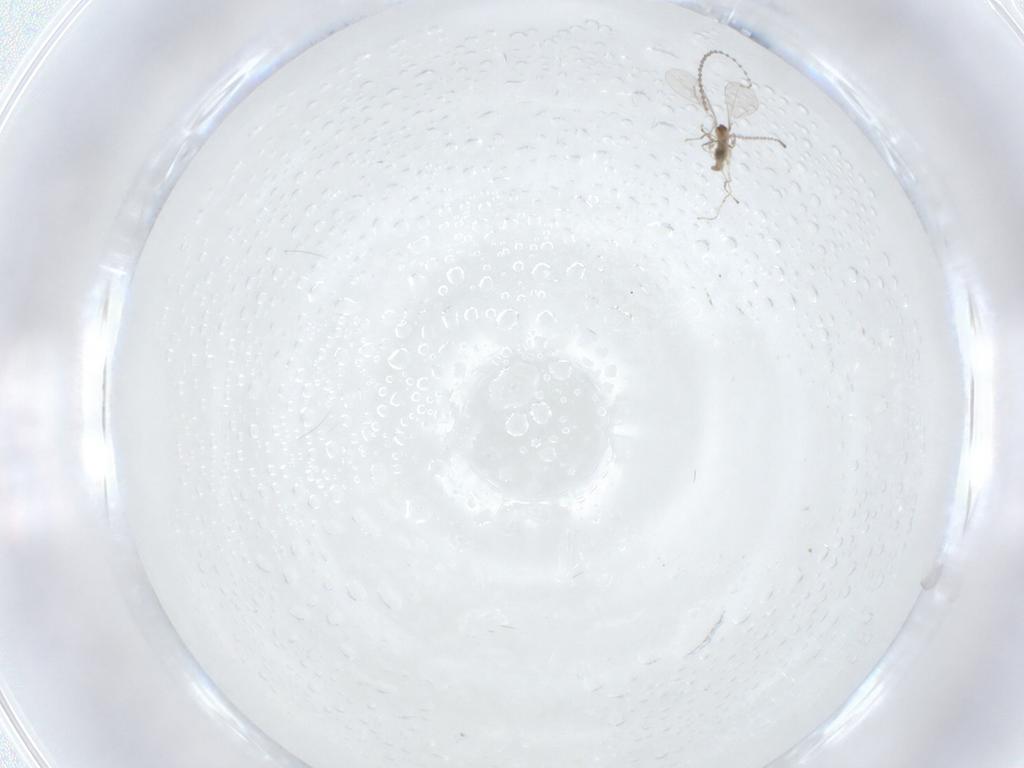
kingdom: Animalia
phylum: Arthropoda
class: Insecta
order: Diptera
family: Cecidomyiidae
